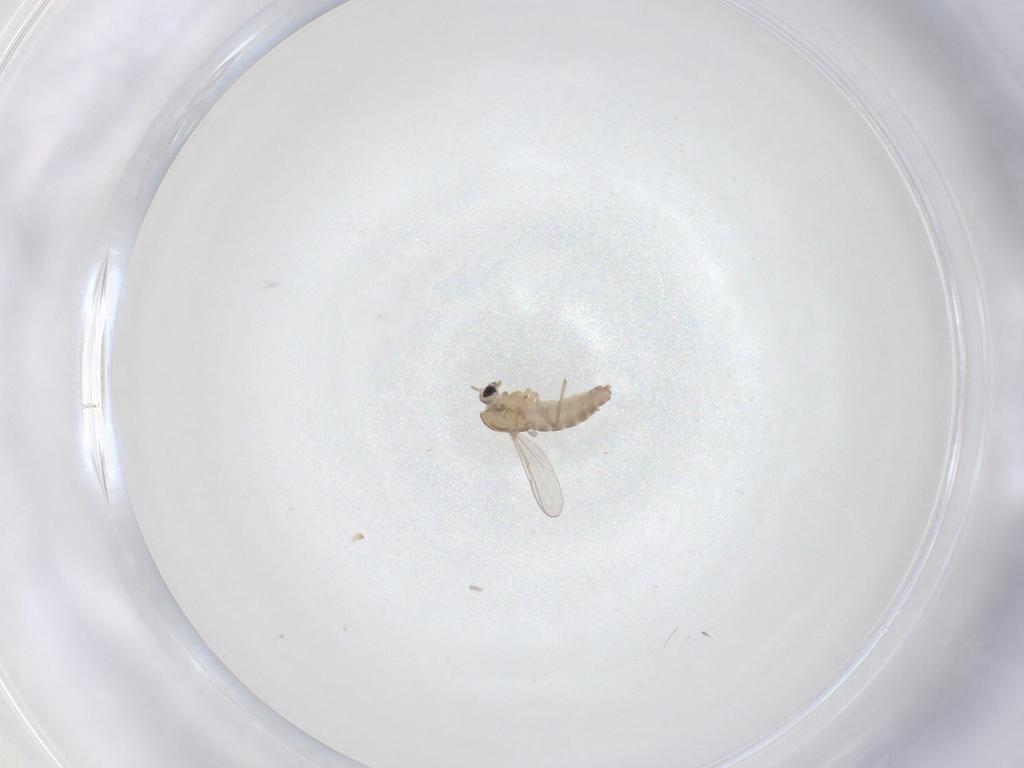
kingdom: Animalia
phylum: Arthropoda
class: Insecta
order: Diptera
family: Chironomidae
